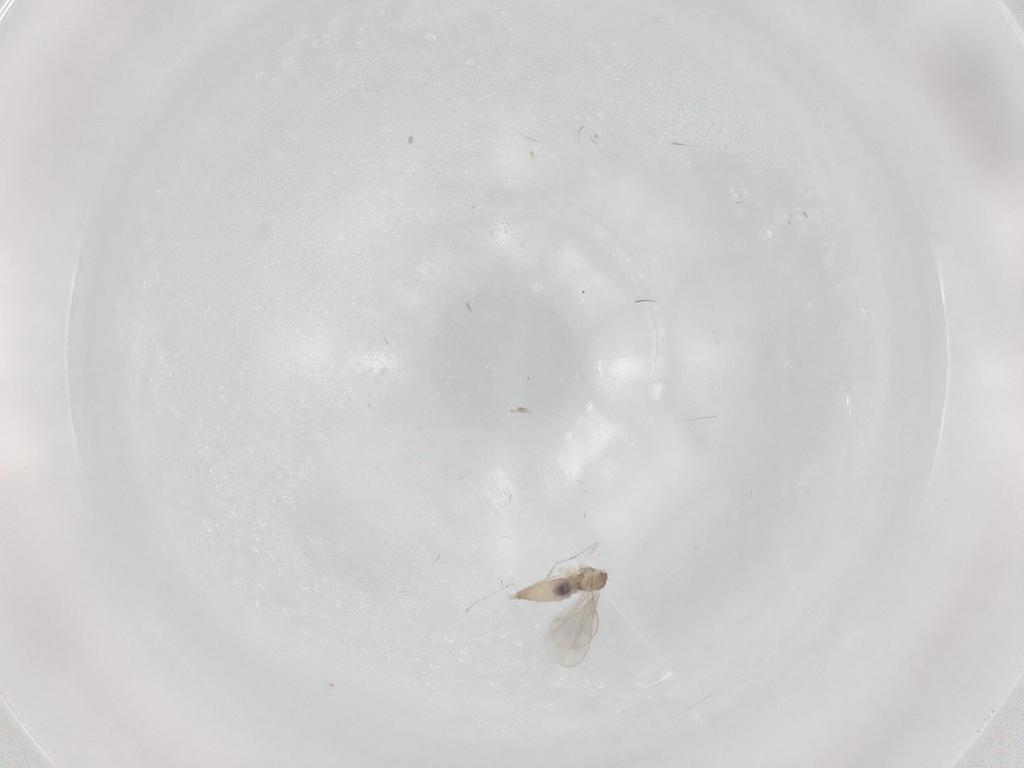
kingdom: Animalia
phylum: Arthropoda
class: Insecta
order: Diptera
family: Cecidomyiidae
